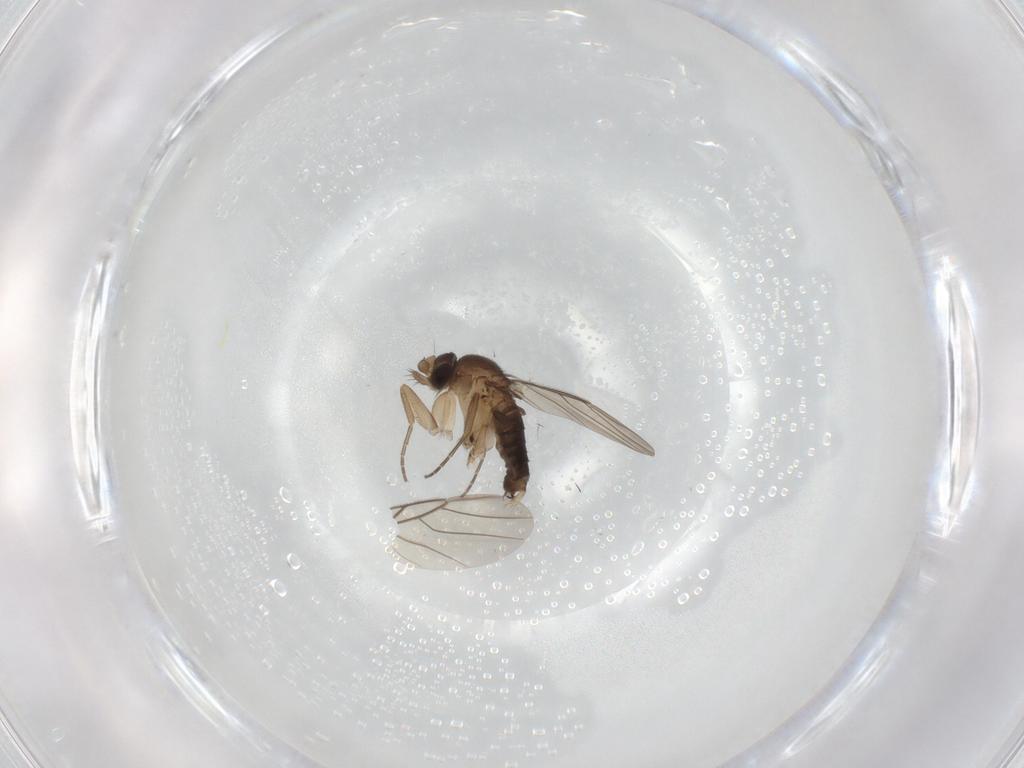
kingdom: Animalia
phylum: Arthropoda
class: Insecta
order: Diptera
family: Phoridae
